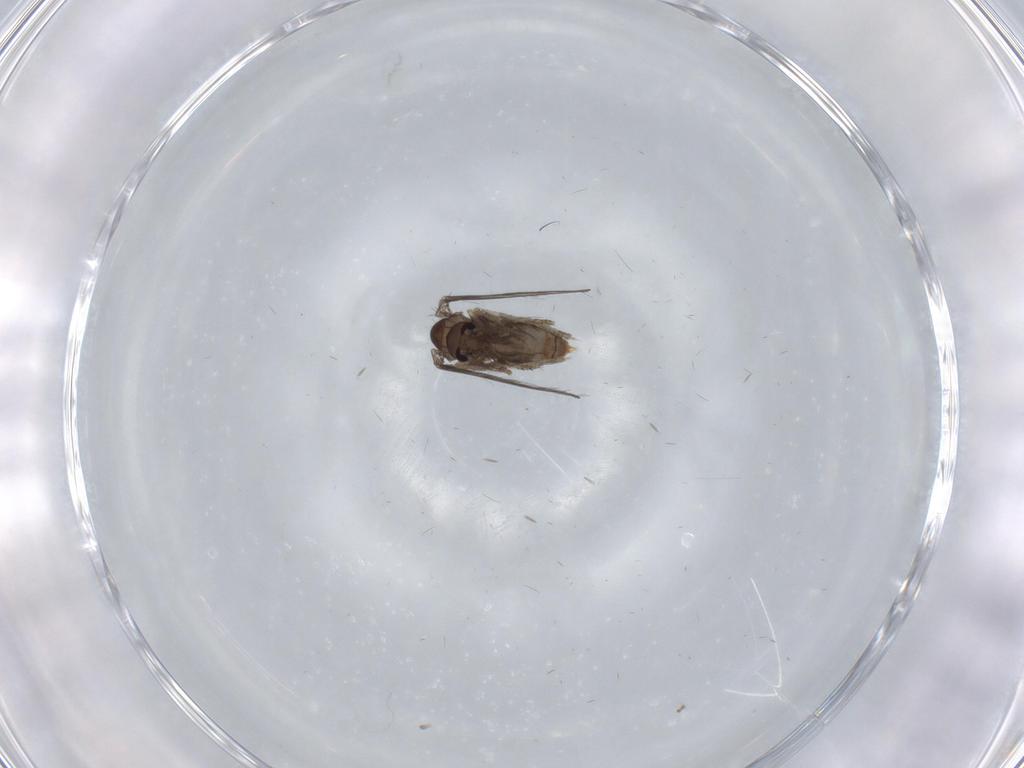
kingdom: Animalia
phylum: Arthropoda
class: Insecta
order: Diptera
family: Psychodidae
